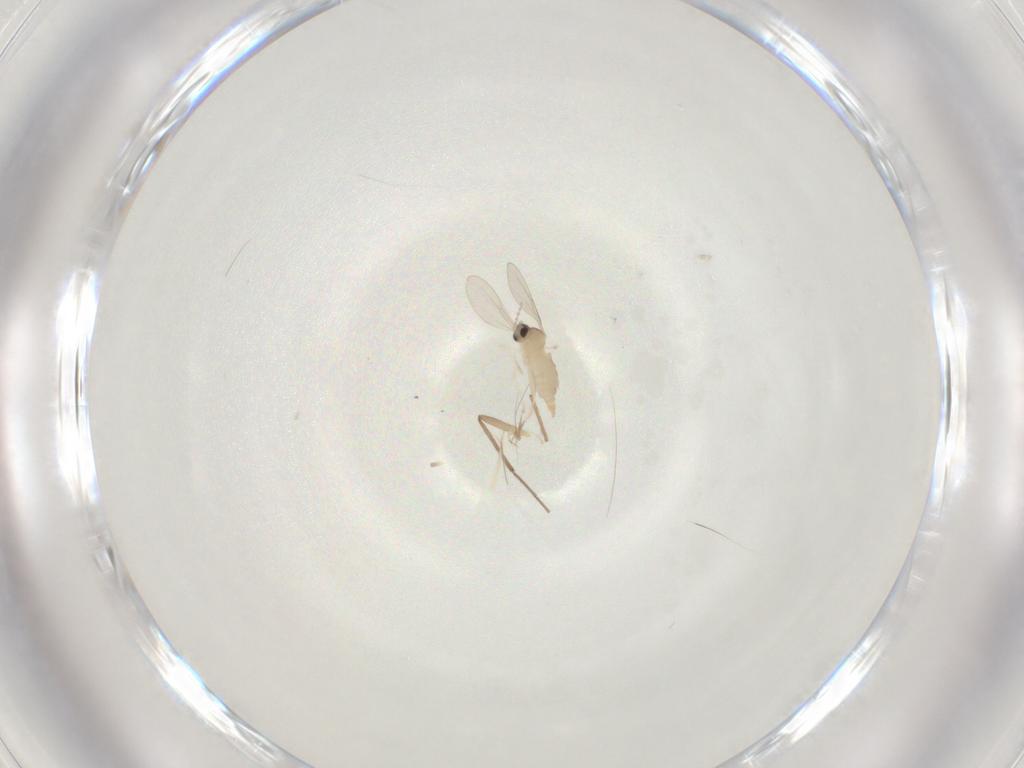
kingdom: Animalia
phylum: Arthropoda
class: Insecta
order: Diptera
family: Cecidomyiidae
